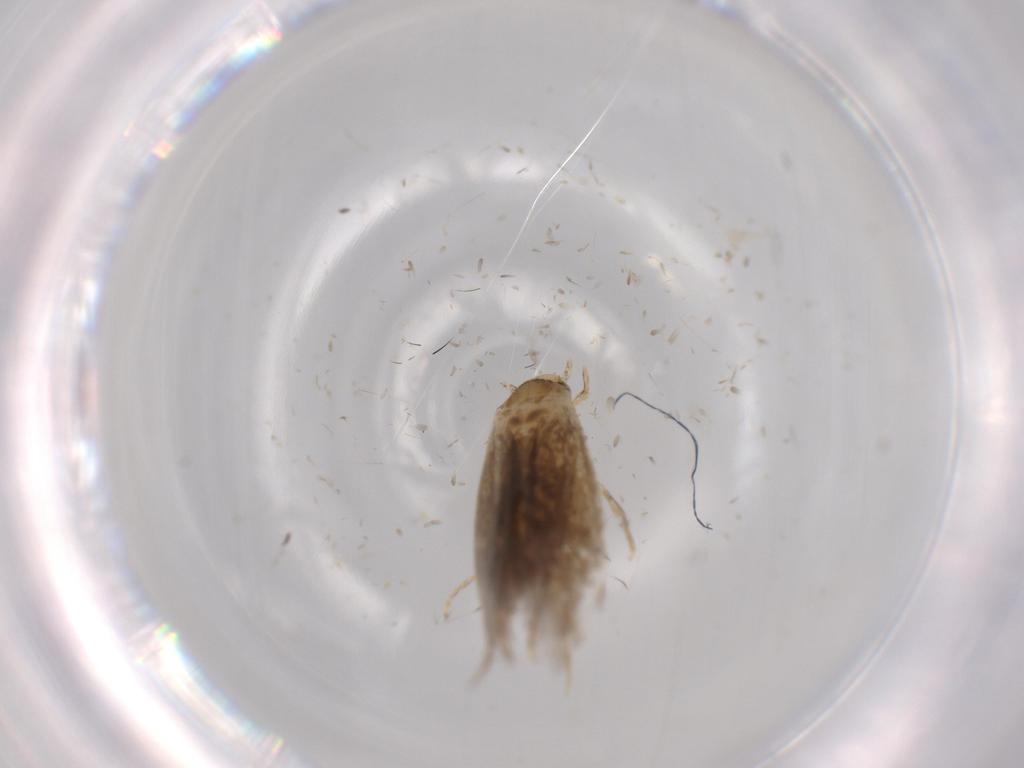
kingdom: Animalia
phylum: Arthropoda
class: Insecta
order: Lepidoptera
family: Tineidae
